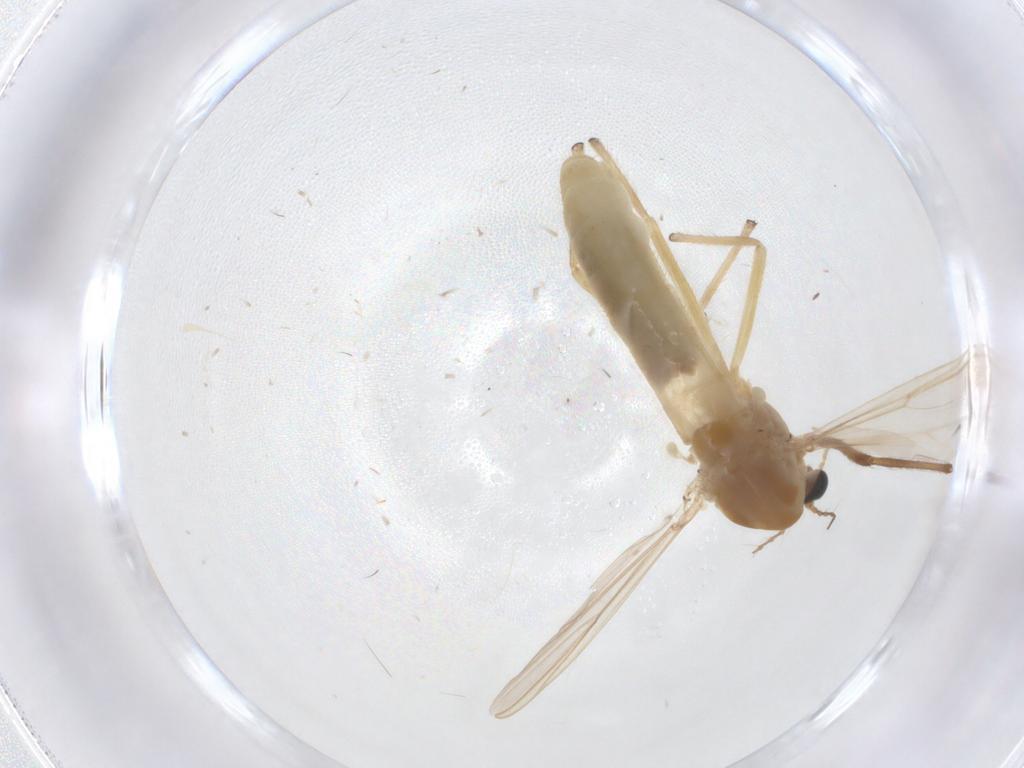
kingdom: Animalia
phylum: Arthropoda
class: Insecta
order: Diptera
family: Chironomidae
